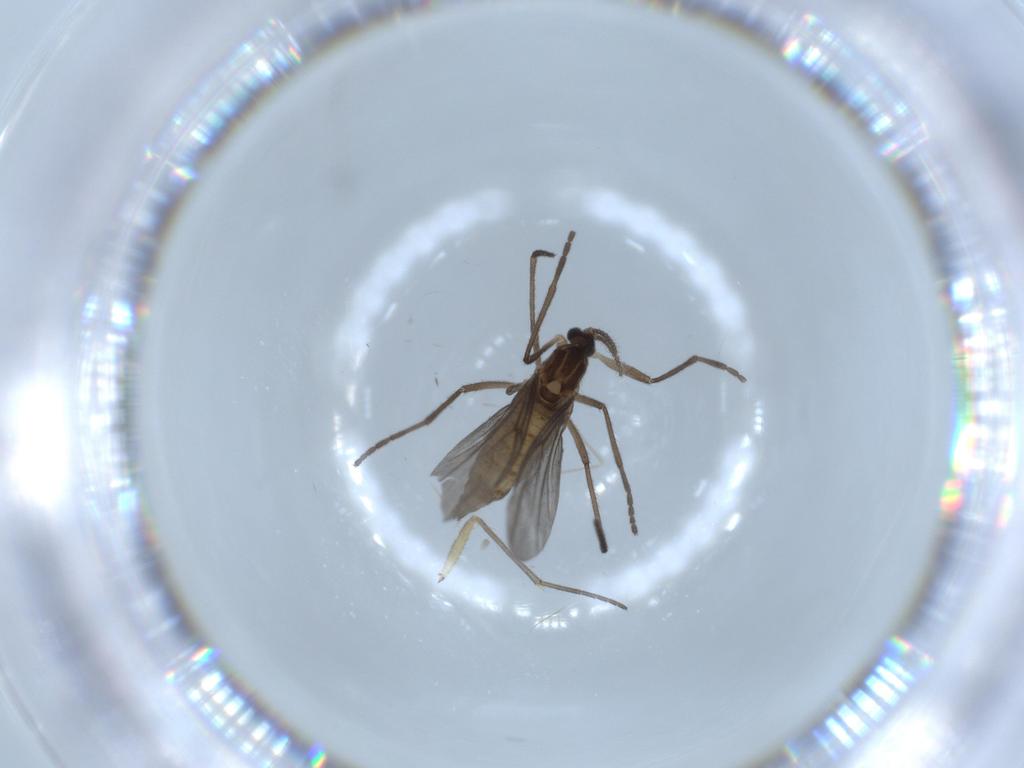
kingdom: Animalia
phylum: Arthropoda
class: Insecta
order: Diptera
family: Cecidomyiidae
